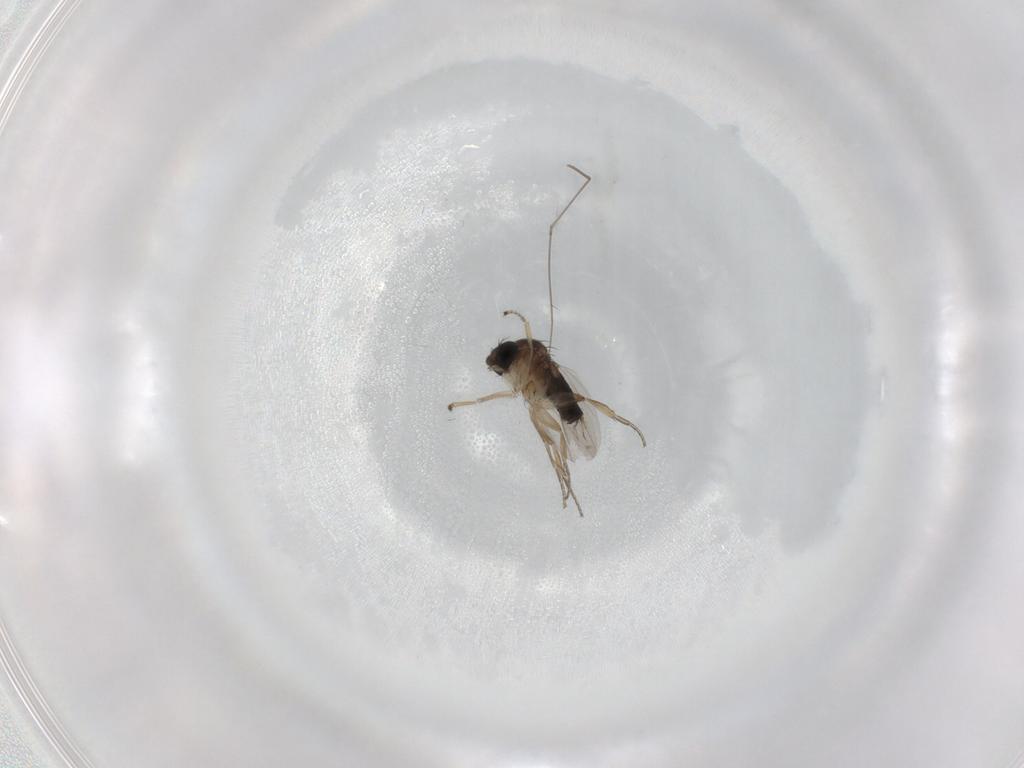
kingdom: Animalia
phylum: Arthropoda
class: Insecta
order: Diptera
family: Phoridae
